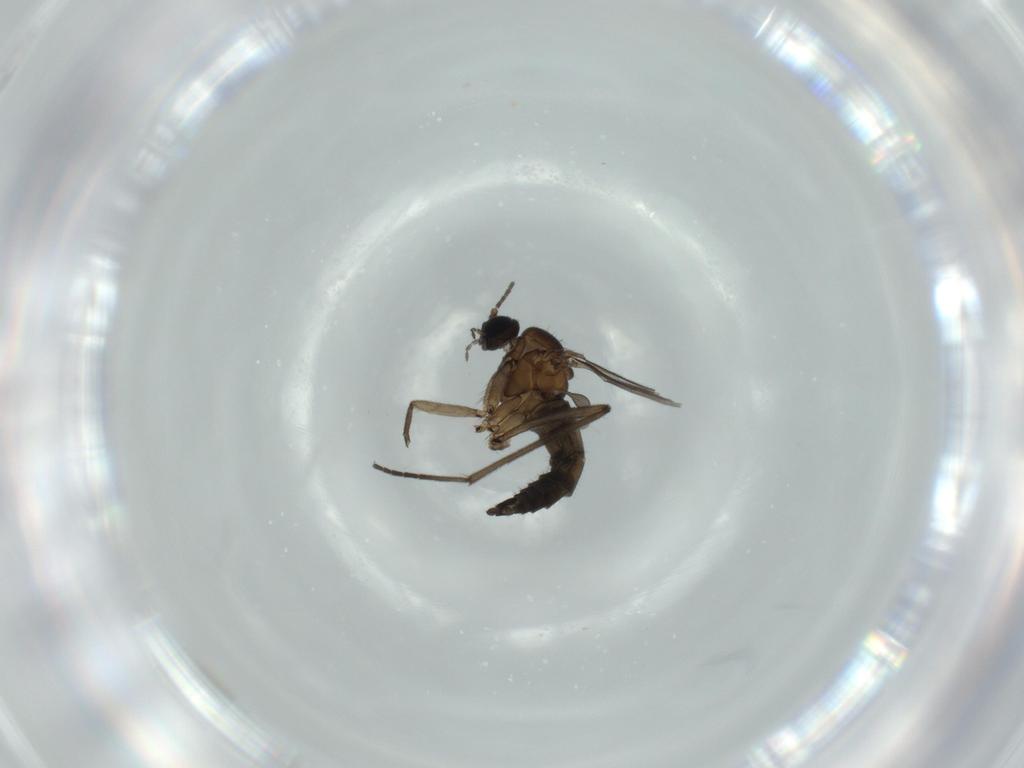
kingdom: Animalia
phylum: Arthropoda
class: Insecta
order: Diptera
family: Sciaridae
